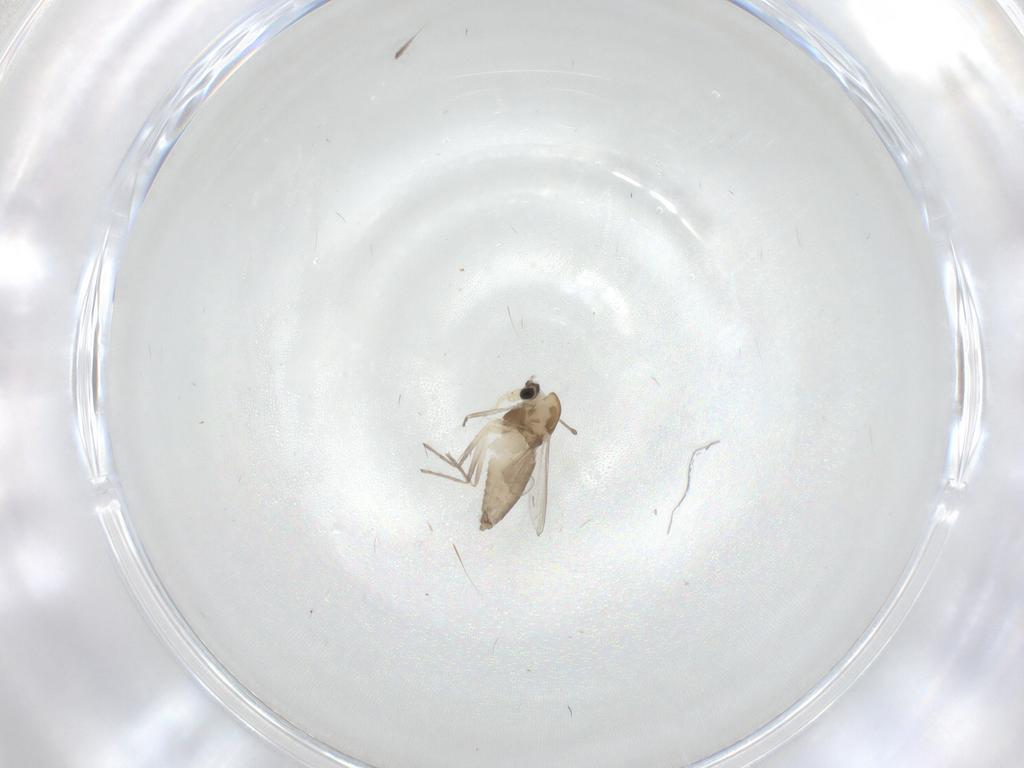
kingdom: Animalia
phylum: Arthropoda
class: Insecta
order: Diptera
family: Chironomidae
